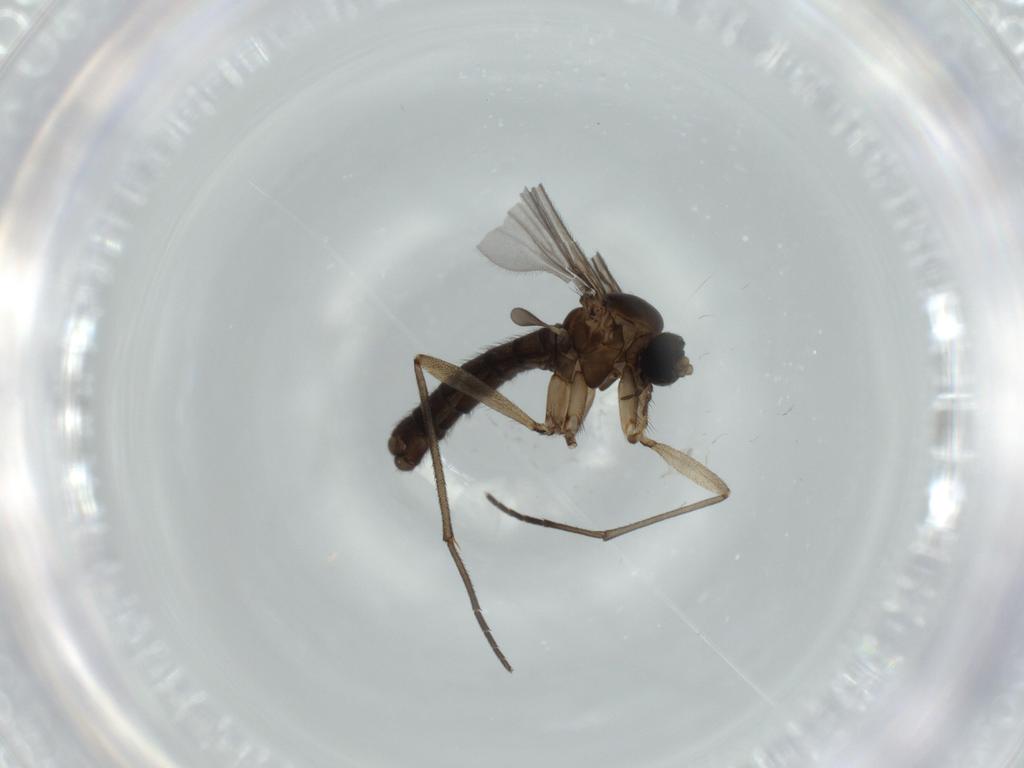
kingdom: Animalia
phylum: Arthropoda
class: Insecta
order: Diptera
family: Sciaridae
